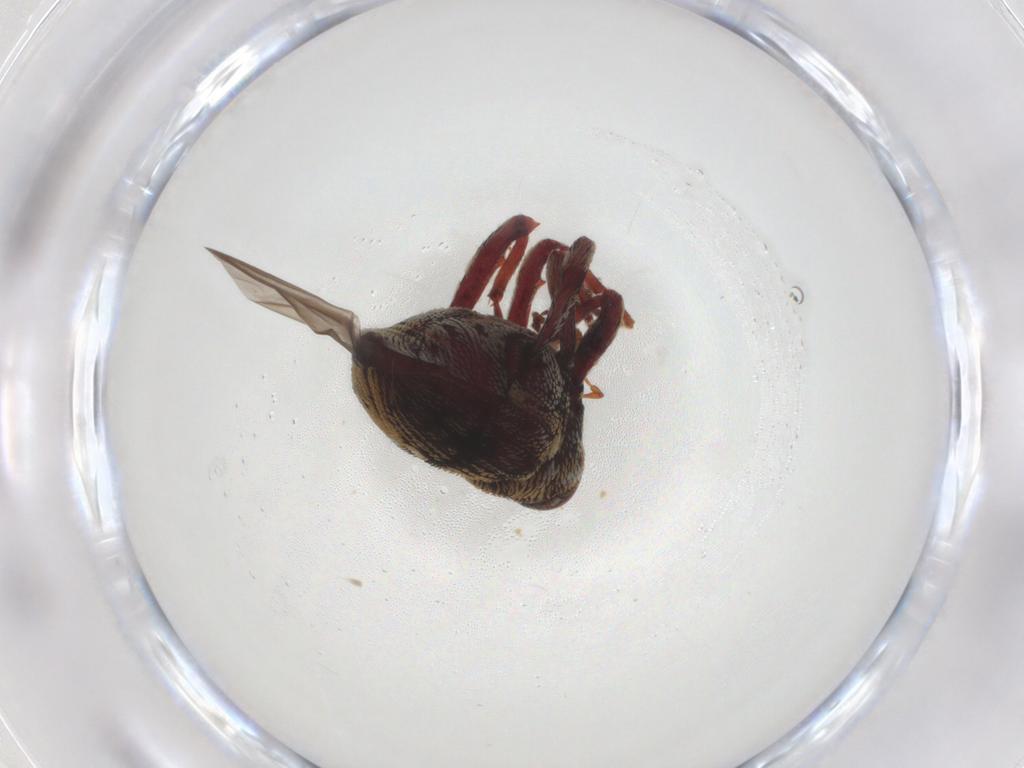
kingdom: Animalia
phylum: Arthropoda
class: Insecta
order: Coleoptera
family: Curculionidae
